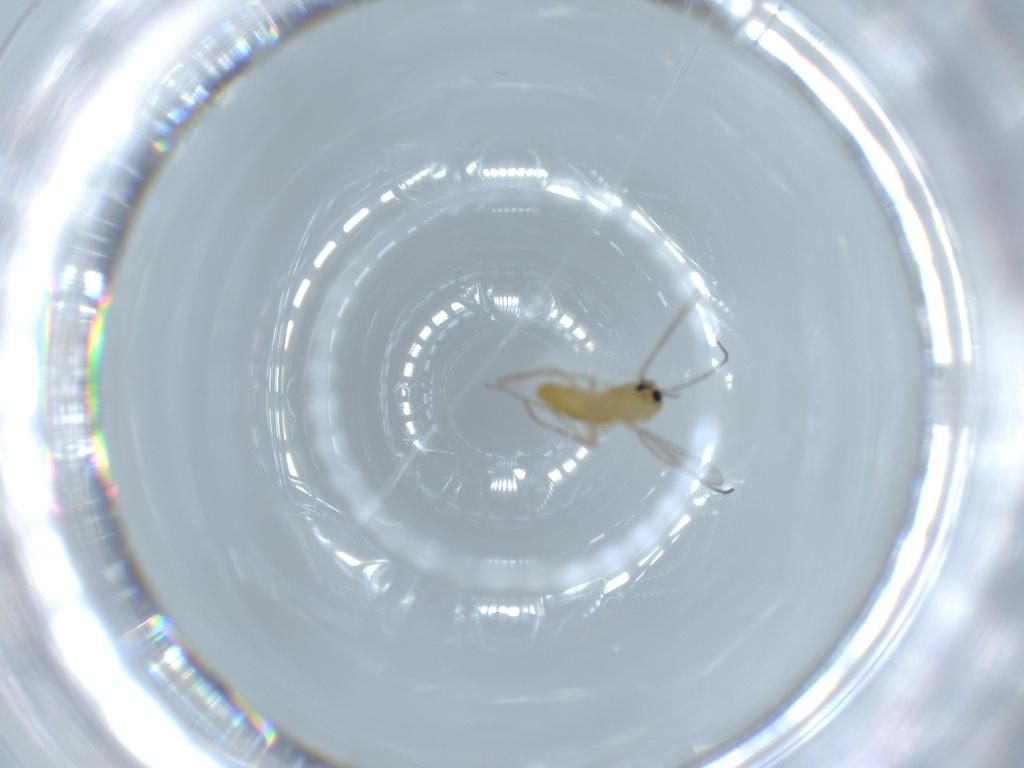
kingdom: Animalia
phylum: Arthropoda
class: Insecta
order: Diptera
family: Chironomidae
